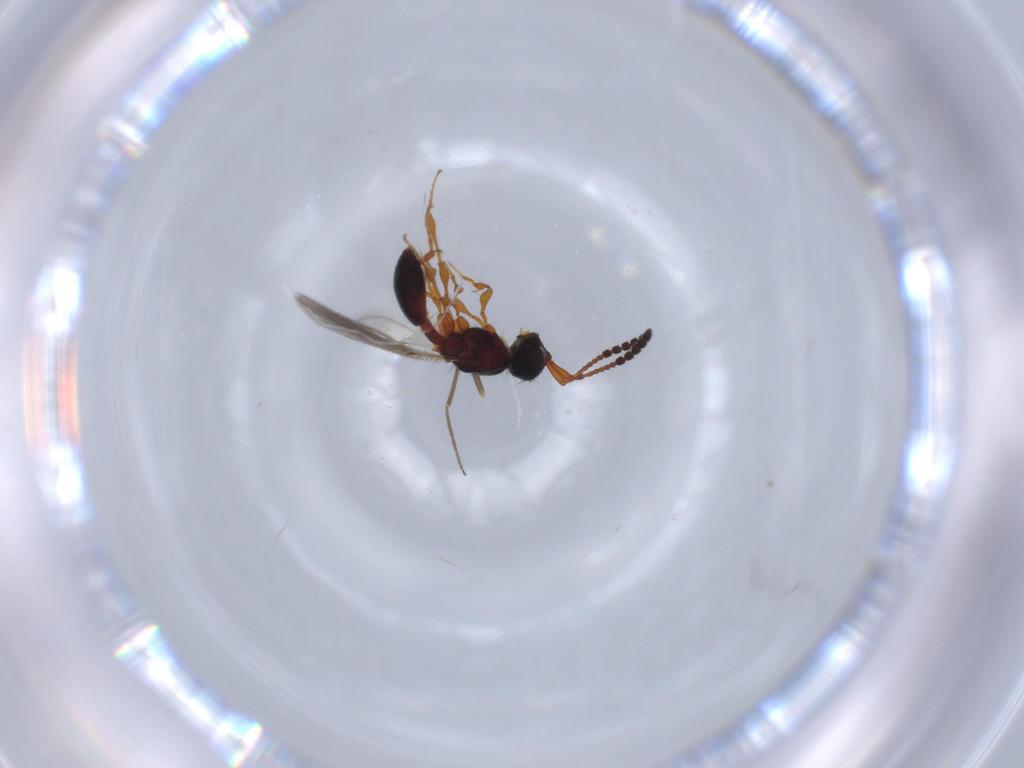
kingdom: Animalia
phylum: Arthropoda
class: Insecta
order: Hymenoptera
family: Diapriidae
